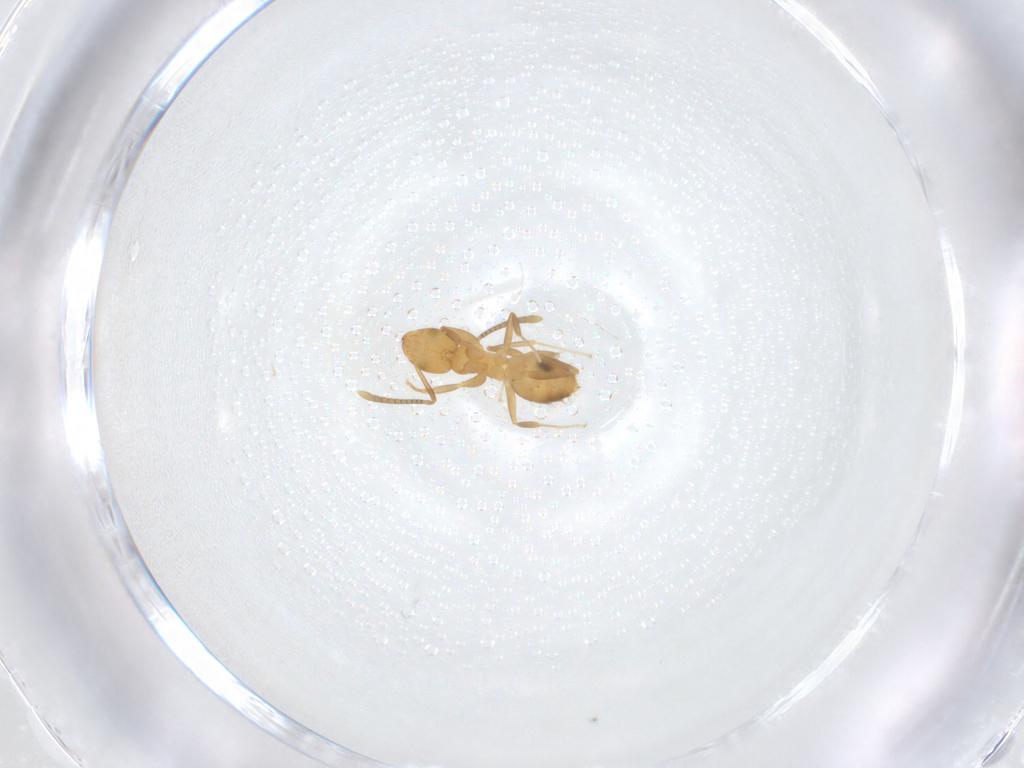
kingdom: Animalia
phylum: Arthropoda
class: Insecta
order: Hymenoptera
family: Formicidae
